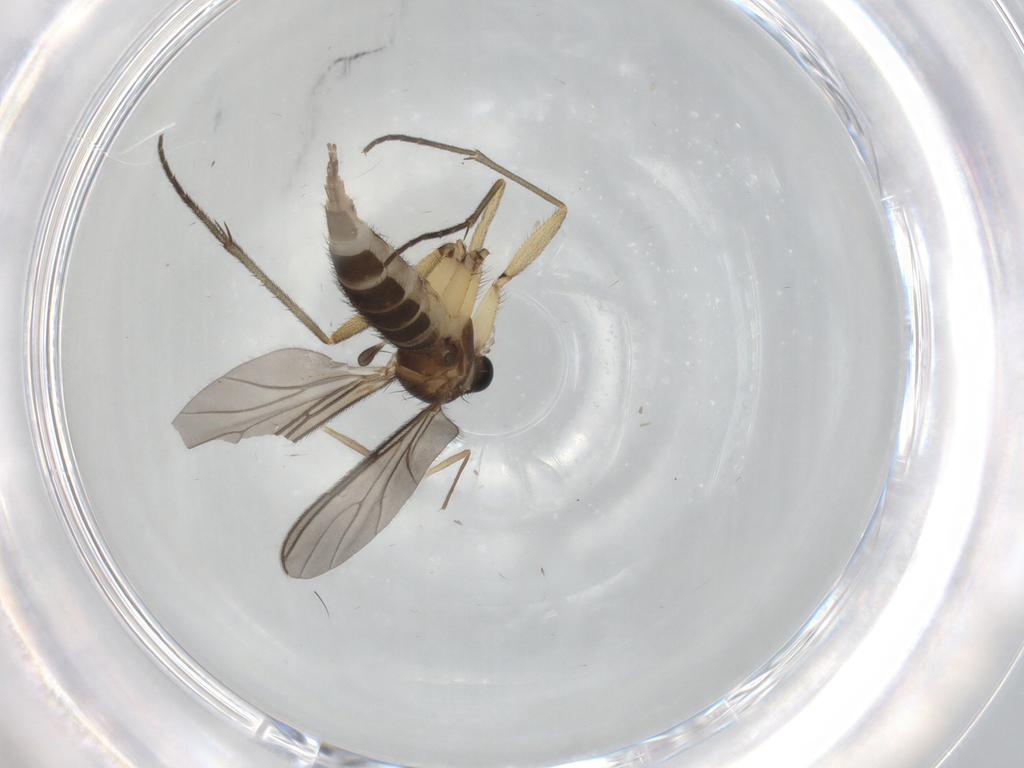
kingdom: Animalia
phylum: Arthropoda
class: Insecta
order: Diptera
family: Sciaridae
